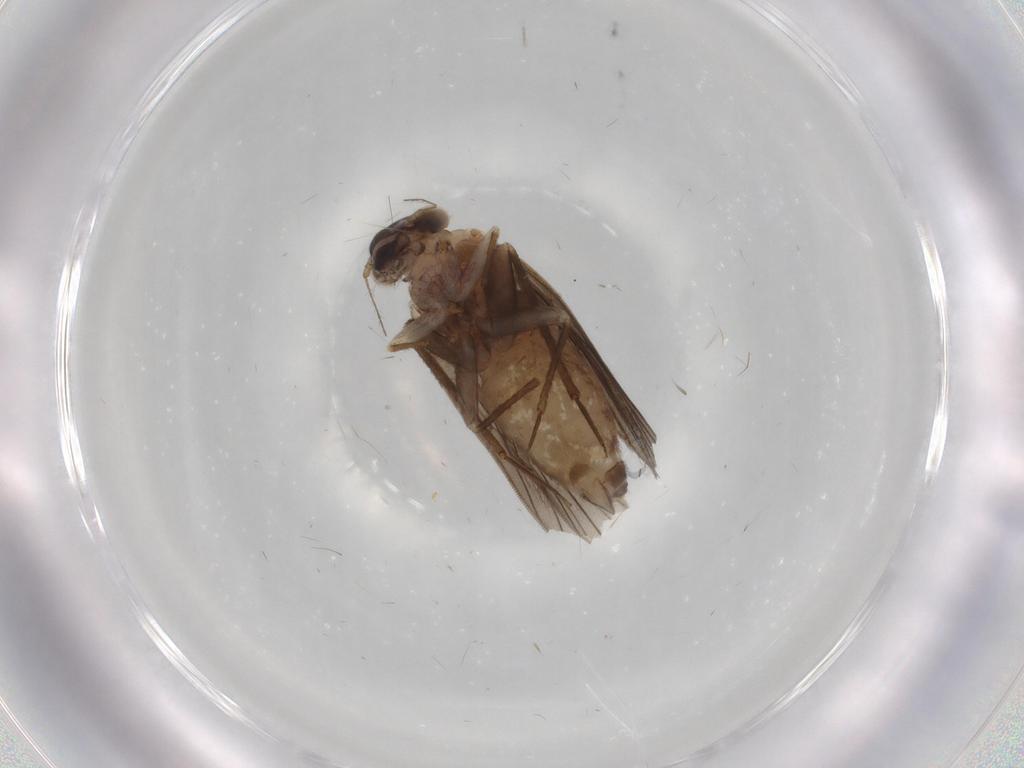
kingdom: Animalia
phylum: Arthropoda
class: Insecta
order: Psocodea
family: Lepidopsocidae
